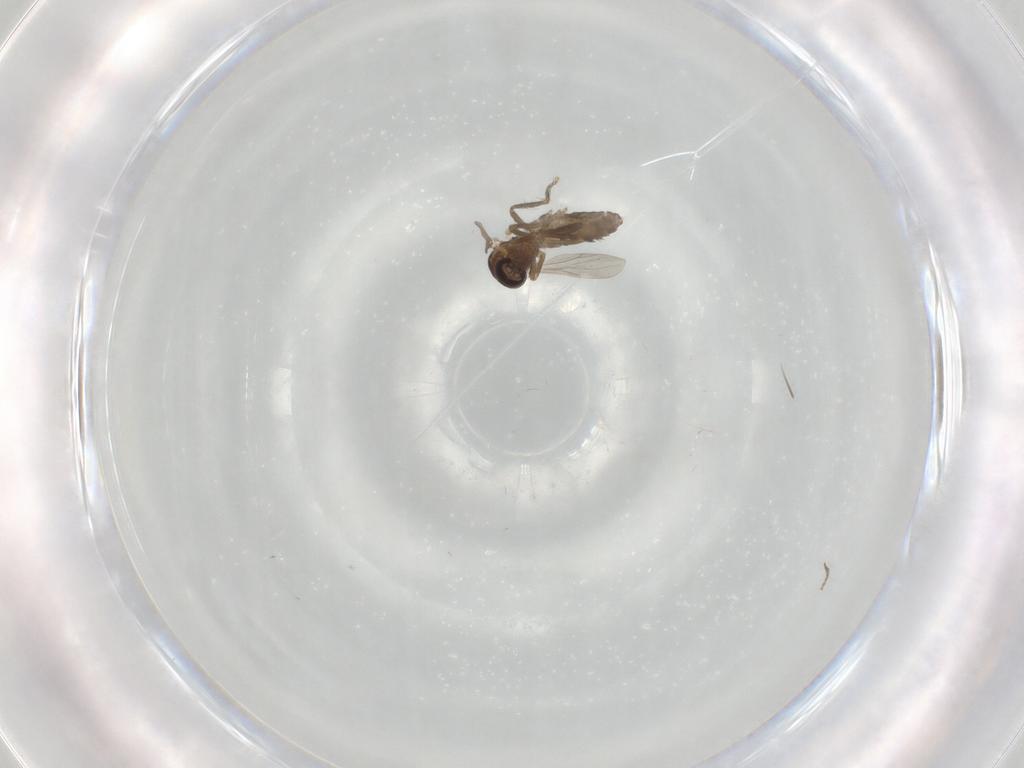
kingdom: Animalia
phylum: Arthropoda
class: Insecta
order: Diptera
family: Ceratopogonidae
